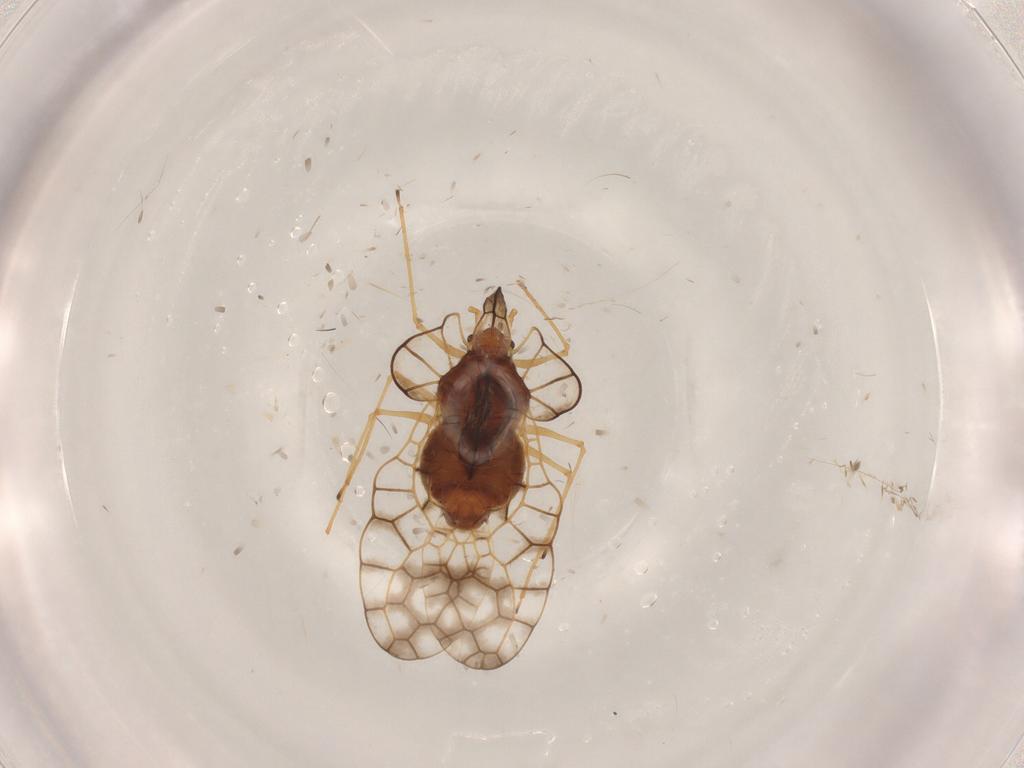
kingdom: Animalia
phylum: Arthropoda
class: Insecta
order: Hemiptera
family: Tingidae
